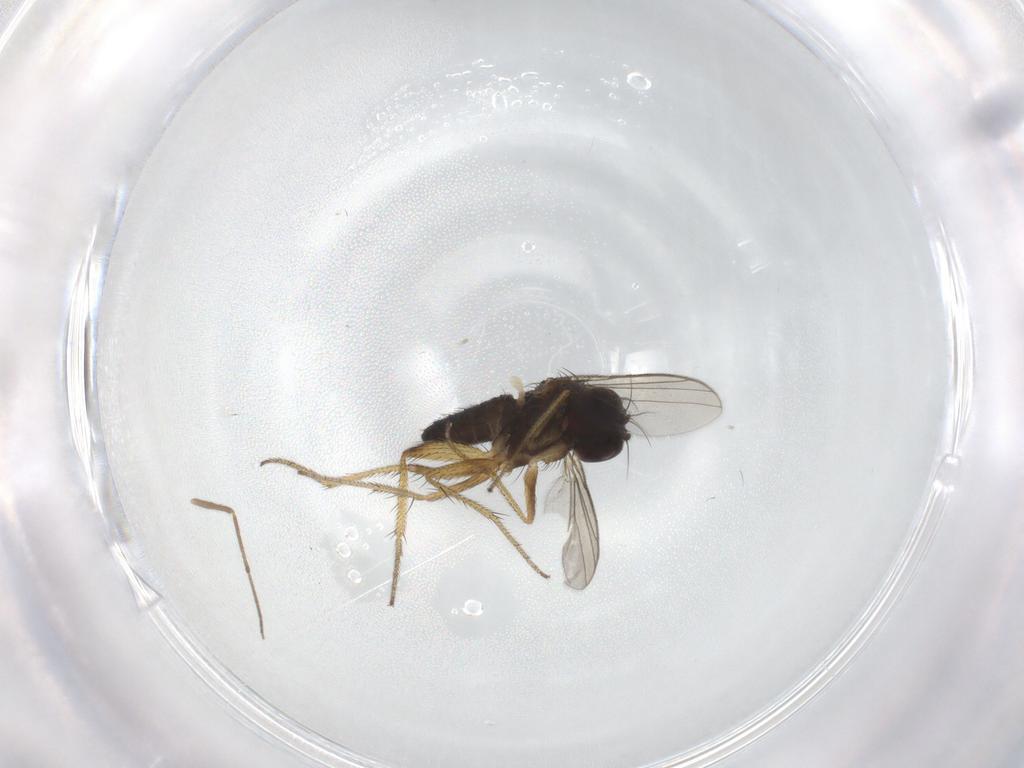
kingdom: Animalia
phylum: Arthropoda
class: Insecta
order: Diptera
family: Chironomidae
